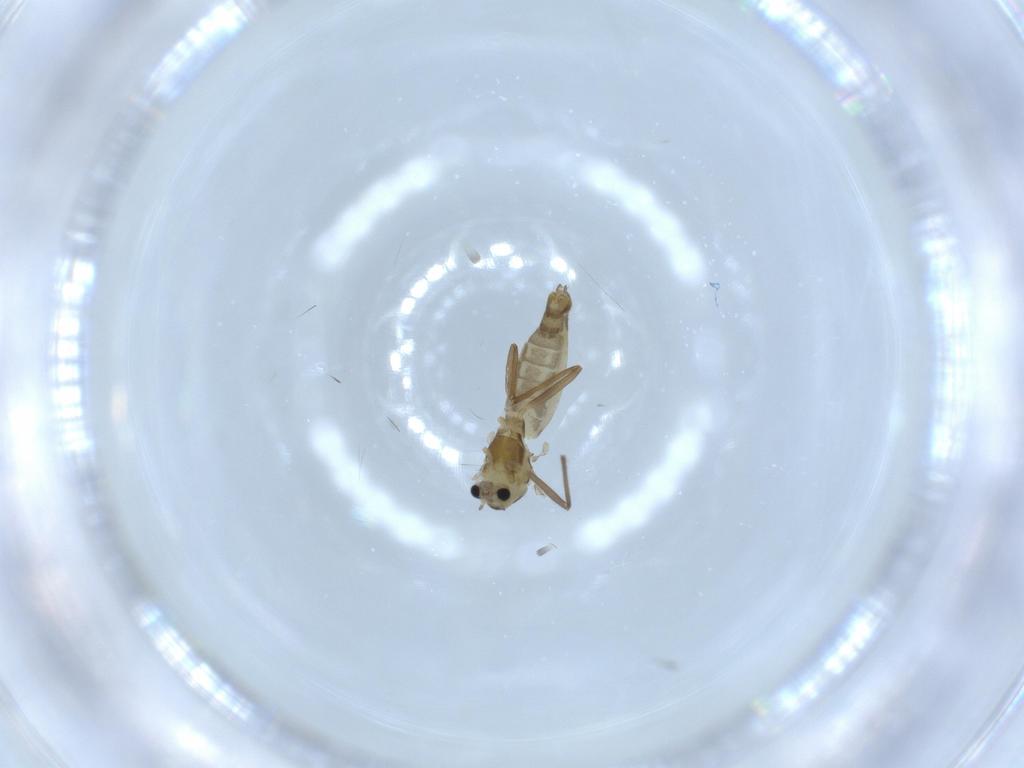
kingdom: Animalia
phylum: Arthropoda
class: Insecta
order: Diptera
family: Chironomidae
